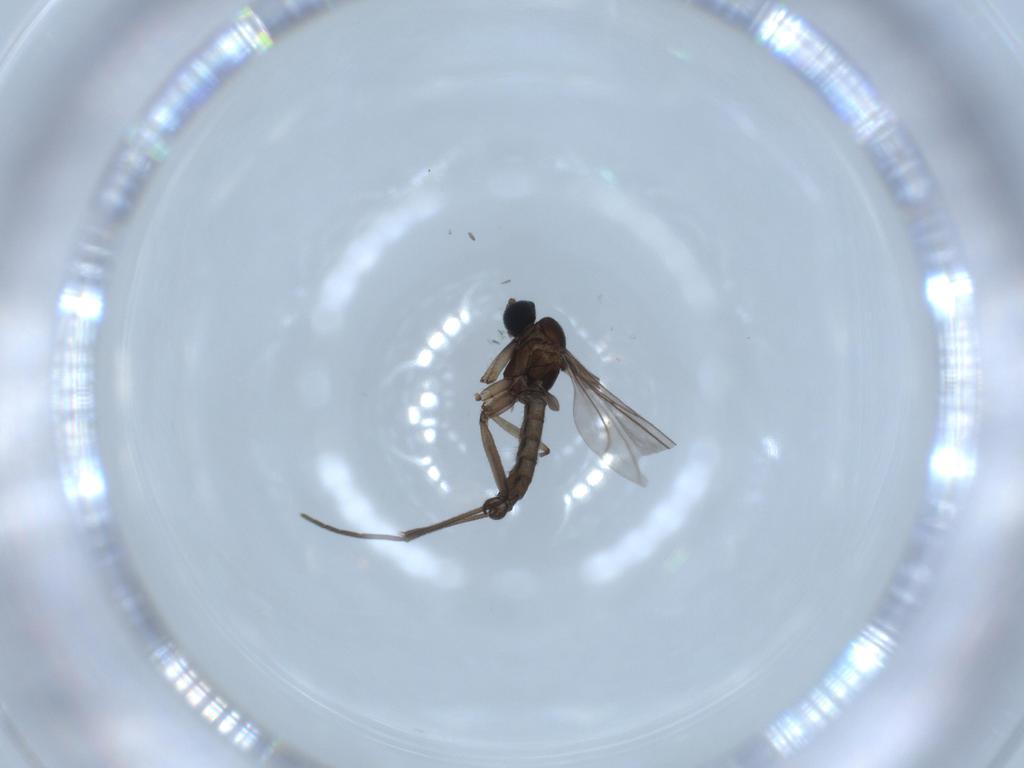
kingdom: Animalia
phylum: Arthropoda
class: Insecta
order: Diptera
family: Sciaridae
